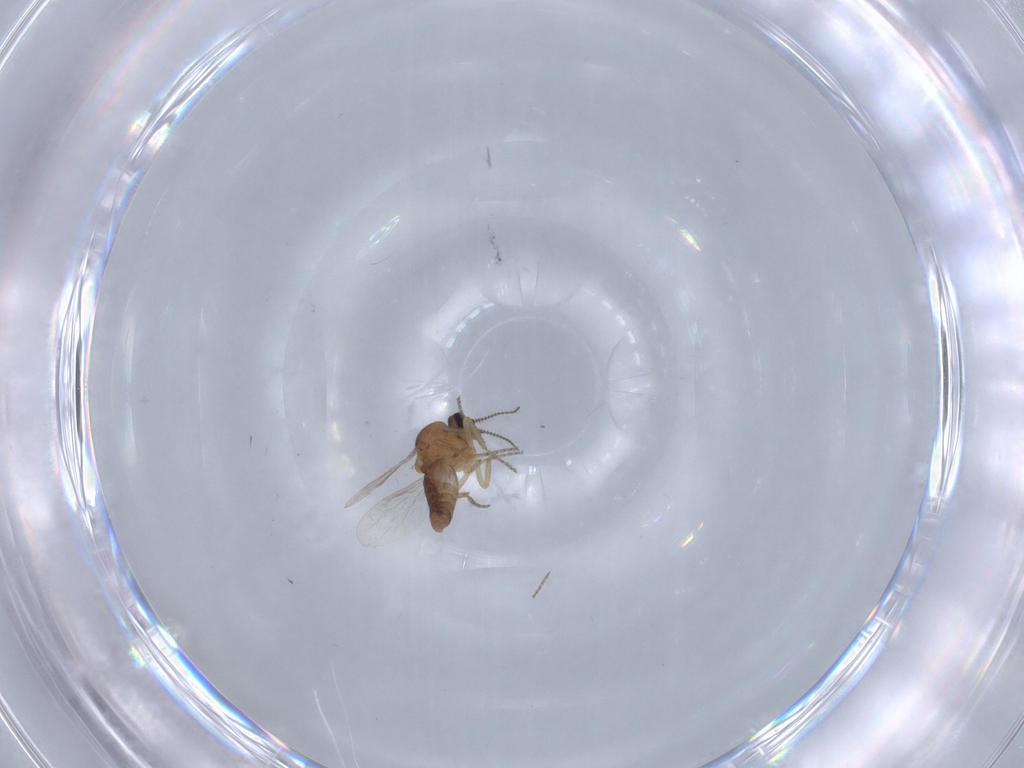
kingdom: Animalia
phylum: Arthropoda
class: Insecta
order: Diptera
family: Ceratopogonidae
